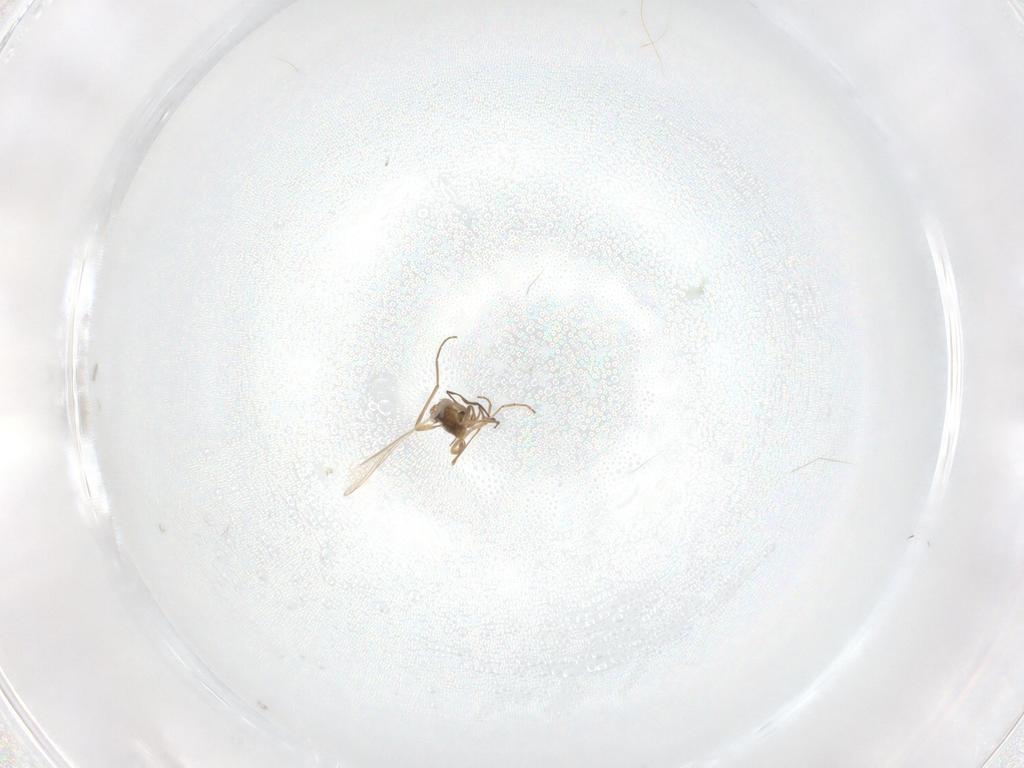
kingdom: Animalia
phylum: Arthropoda
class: Insecta
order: Diptera
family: Chironomidae
